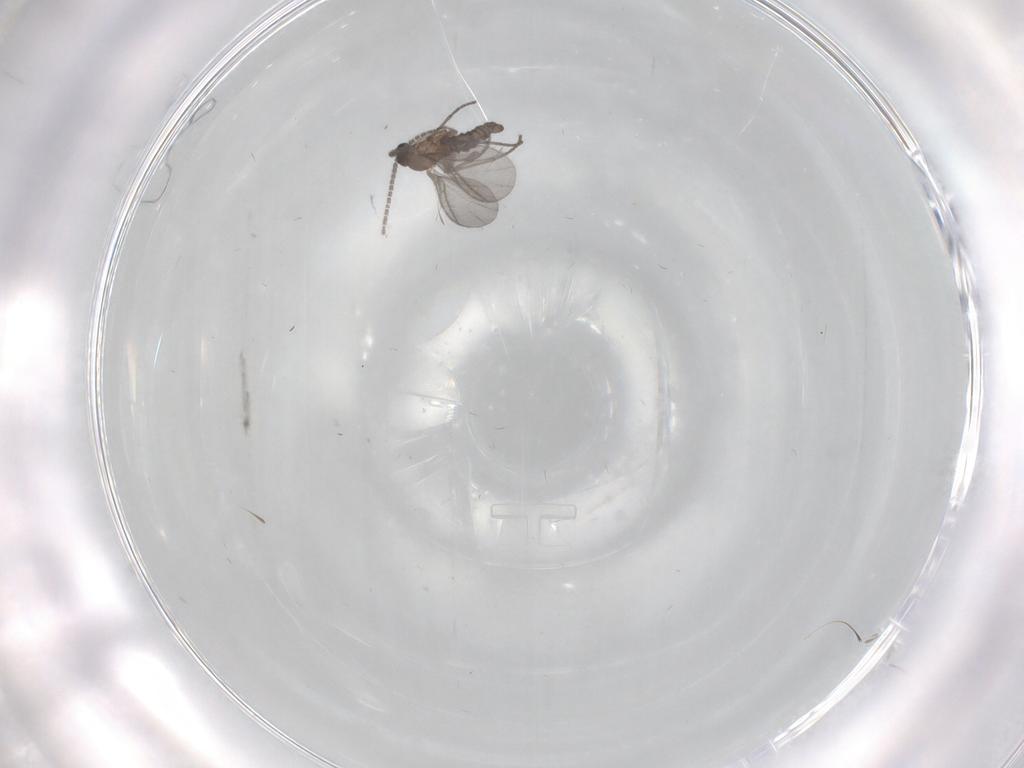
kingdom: Animalia
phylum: Arthropoda
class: Insecta
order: Diptera
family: Sciaridae
